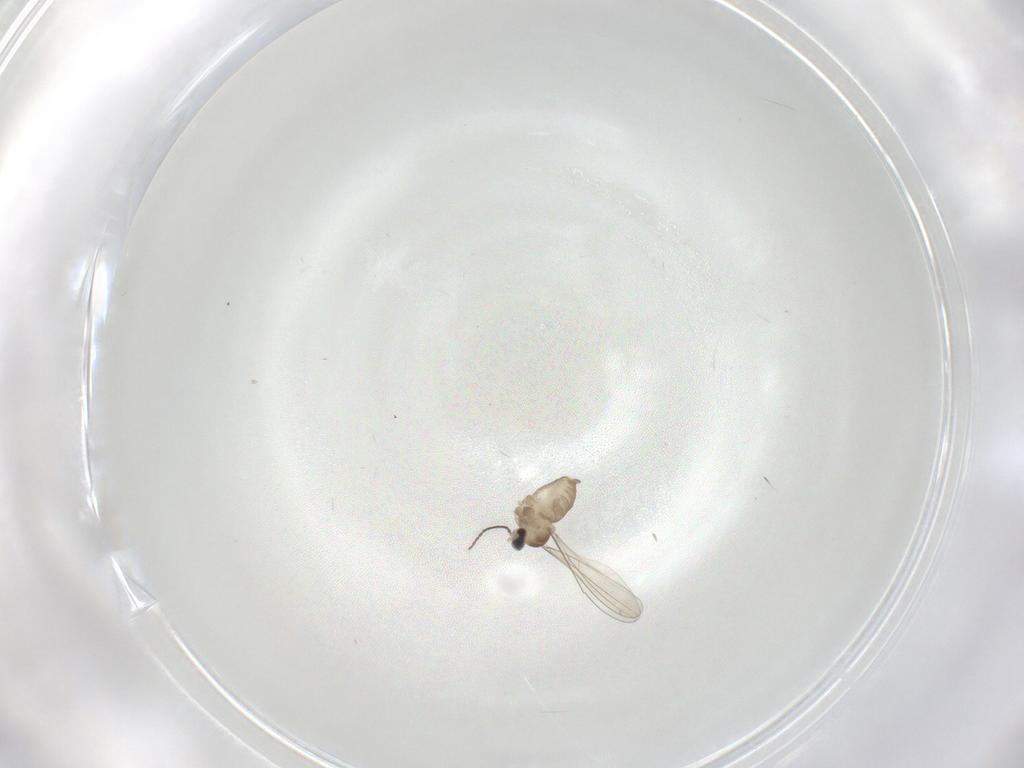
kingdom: Animalia
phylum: Arthropoda
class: Insecta
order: Diptera
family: Cecidomyiidae
